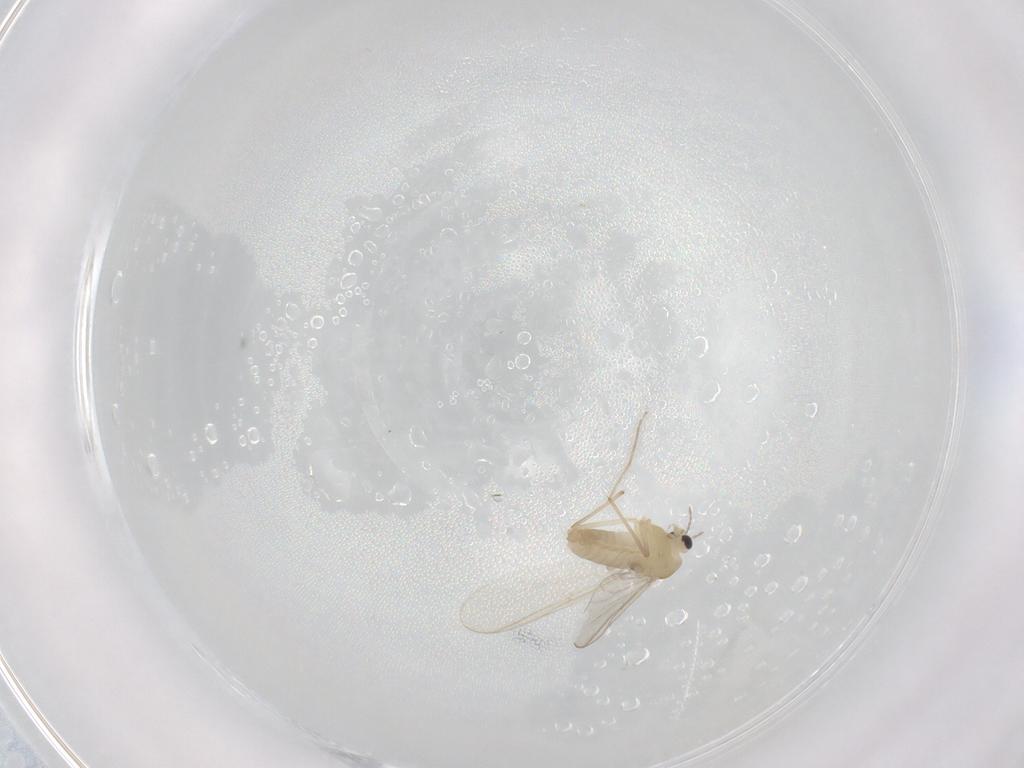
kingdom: Animalia
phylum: Arthropoda
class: Insecta
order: Diptera
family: Chironomidae
